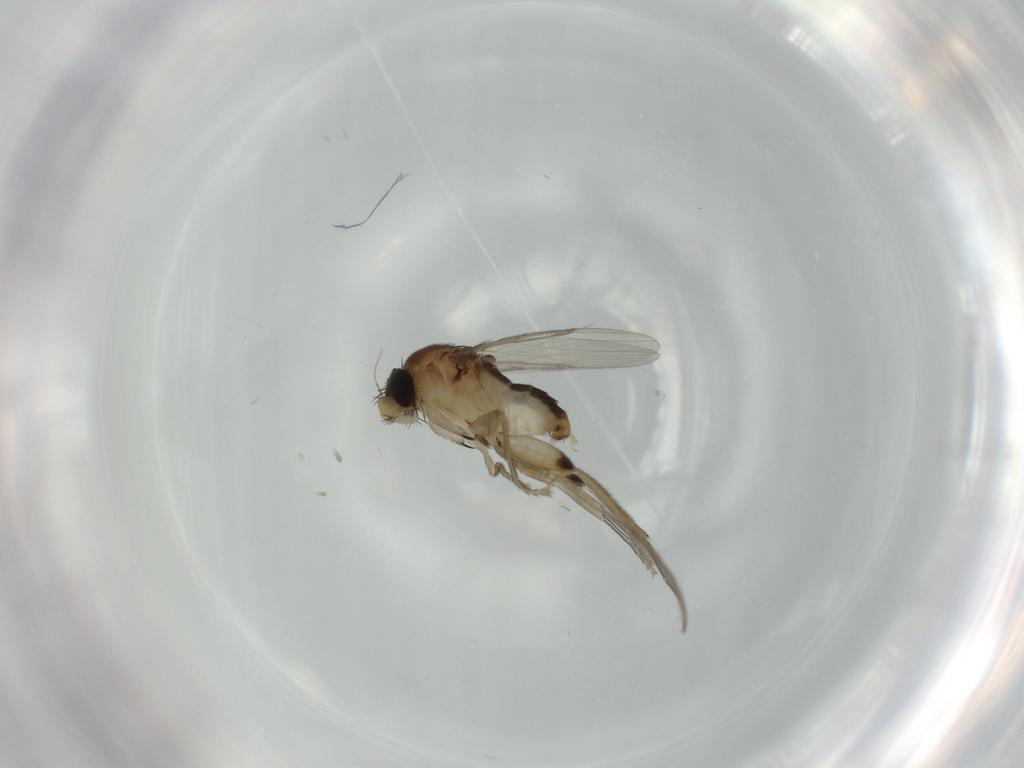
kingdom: Animalia
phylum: Arthropoda
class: Insecta
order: Diptera
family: Phoridae
